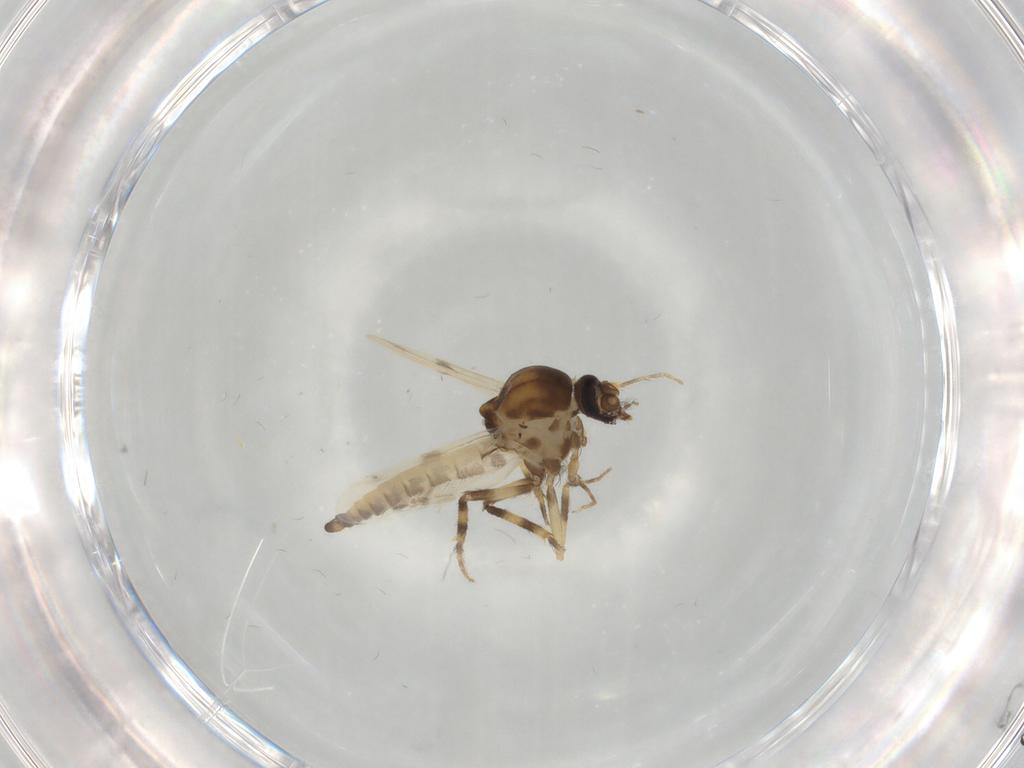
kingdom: Animalia
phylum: Arthropoda
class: Insecta
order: Diptera
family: Ceratopogonidae
